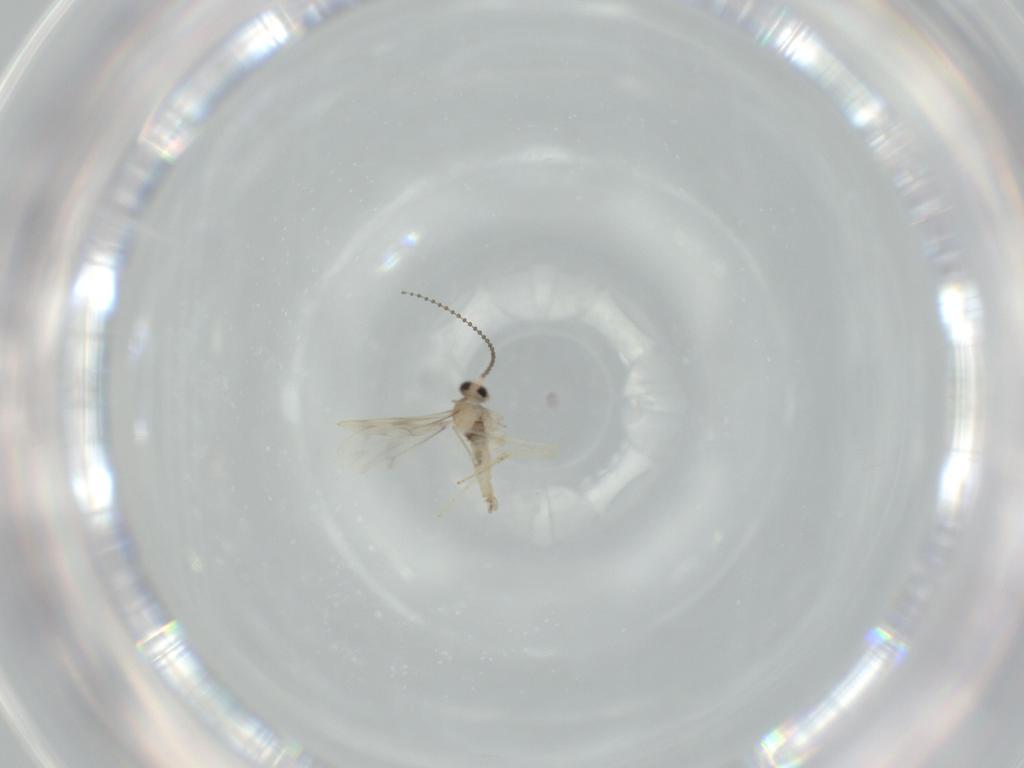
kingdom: Animalia
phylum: Arthropoda
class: Insecta
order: Diptera
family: Cecidomyiidae
